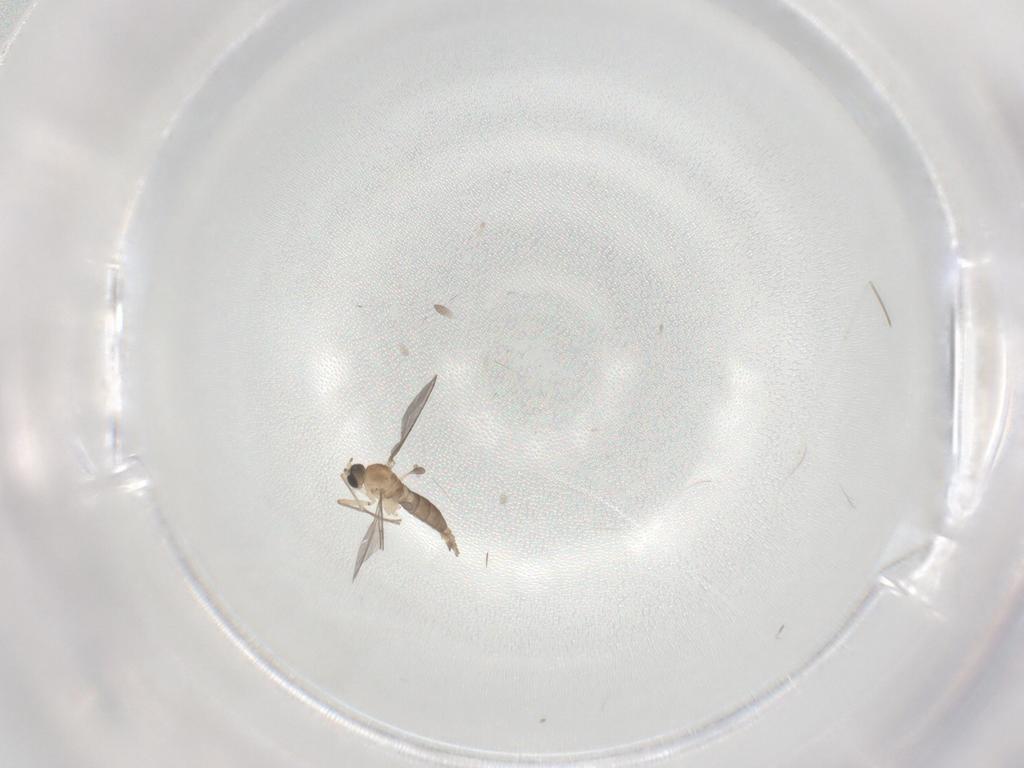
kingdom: Animalia
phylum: Arthropoda
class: Insecta
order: Diptera
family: Sciaridae
